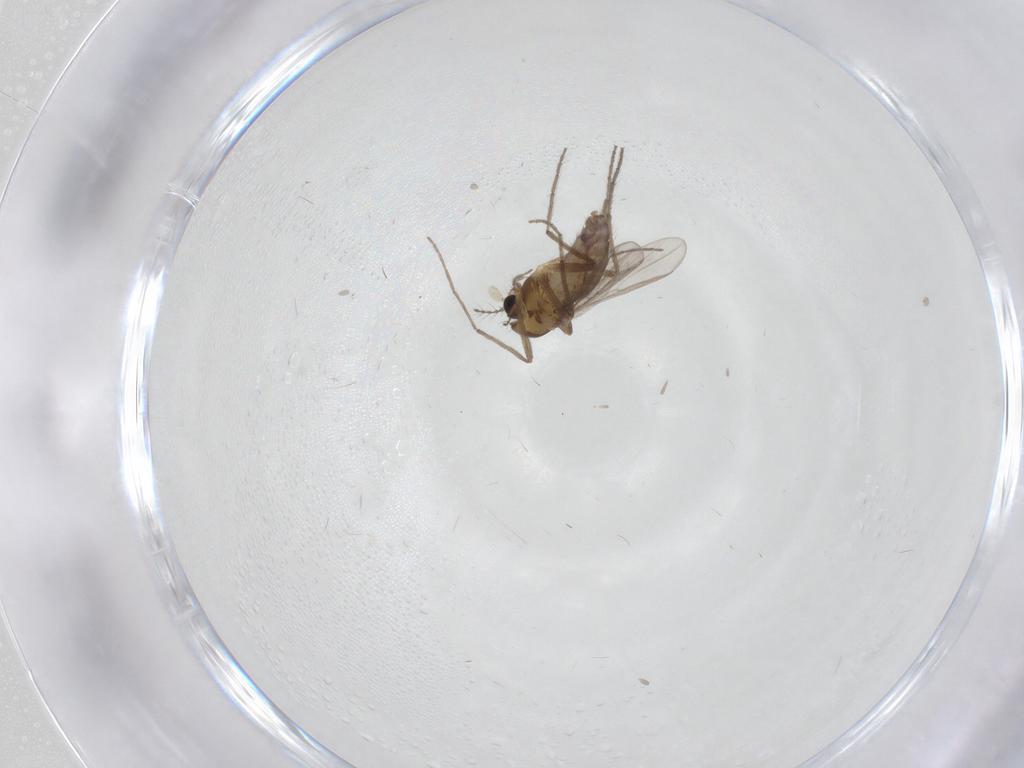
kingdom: Animalia
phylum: Arthropoda
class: Insecta
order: Diptera
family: Chironomidae
